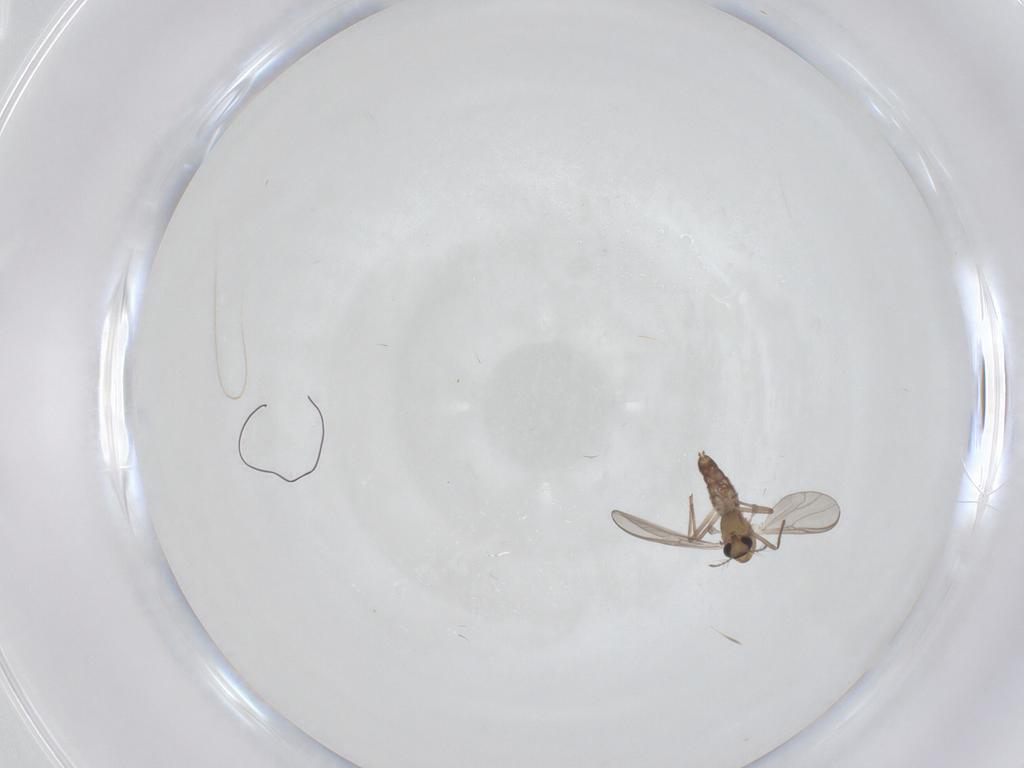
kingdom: Animalia
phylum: Arthropoda
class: Insecta
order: Diptera
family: Chironomidae
